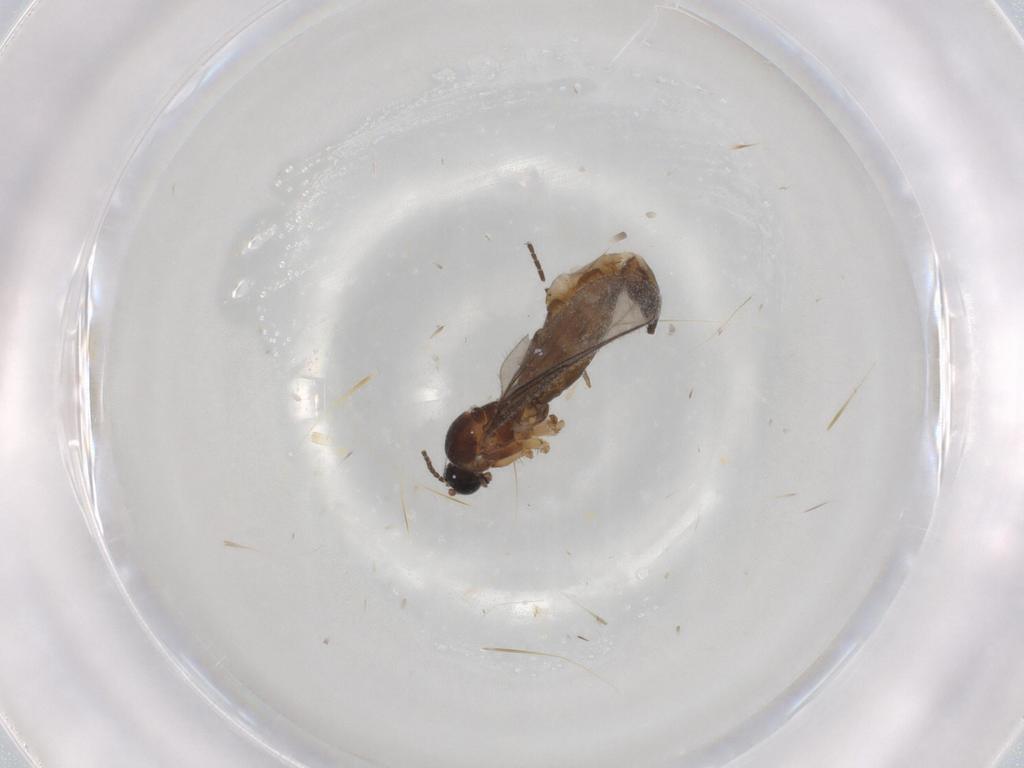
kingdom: Animalia
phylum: Arthropoda
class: Insecta
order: Diptera
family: Sciaridae
